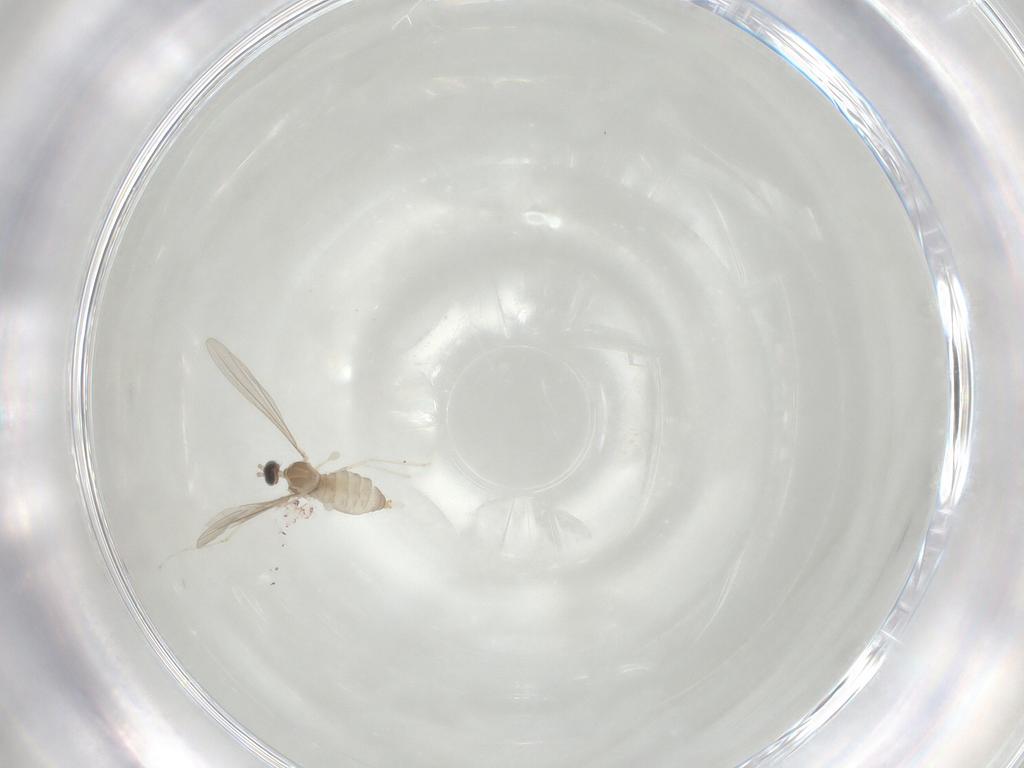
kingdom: Animalia
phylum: Arthropoda
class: Insecta
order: Diptera
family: Cecidomyiidae
